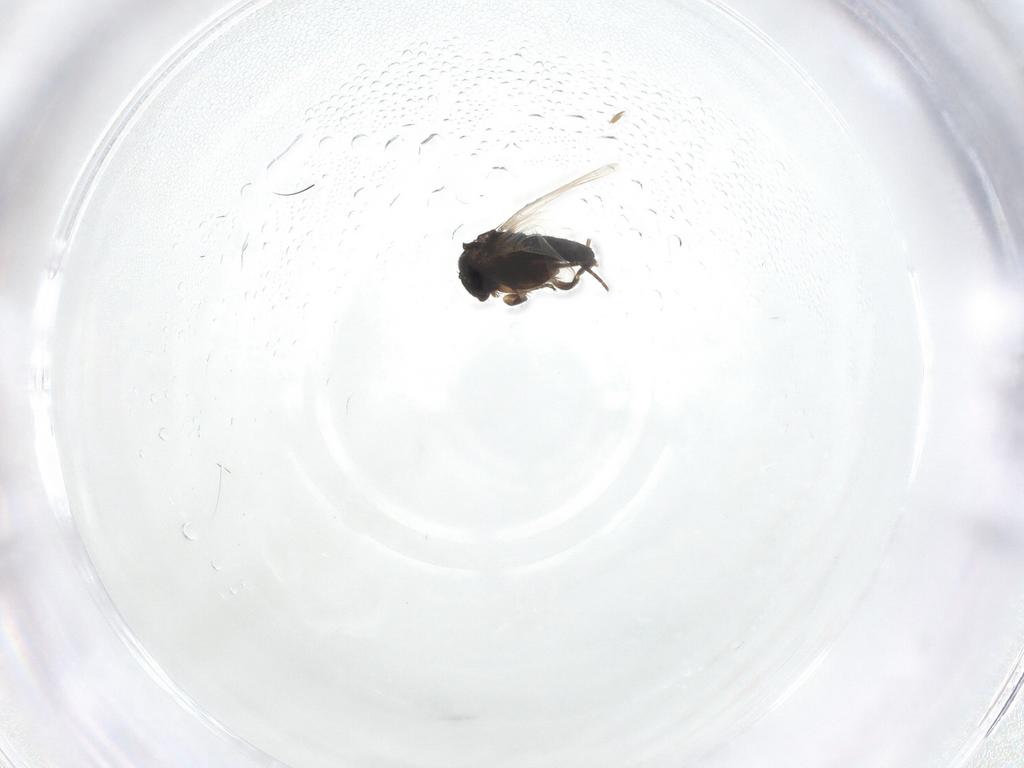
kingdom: Animalia
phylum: Arthropoda
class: Insecta
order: Diptera
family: Phoridae
